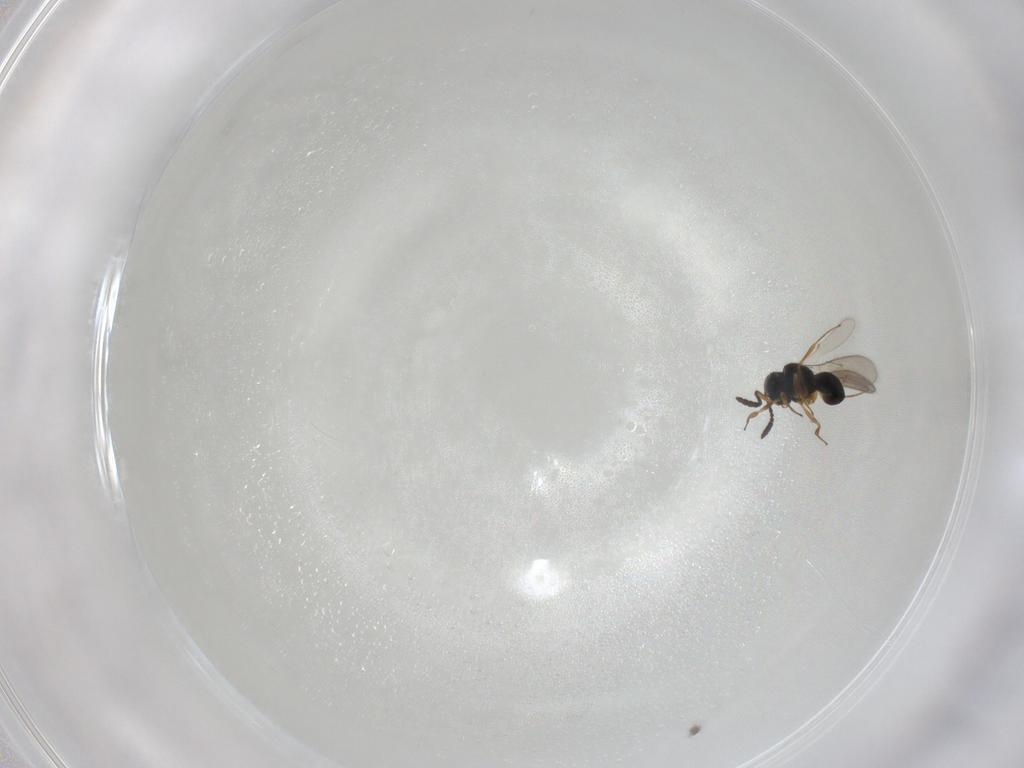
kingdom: Animalia
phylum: Arthropoda
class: Insecta
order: Hymenoptera
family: Scelionidae
